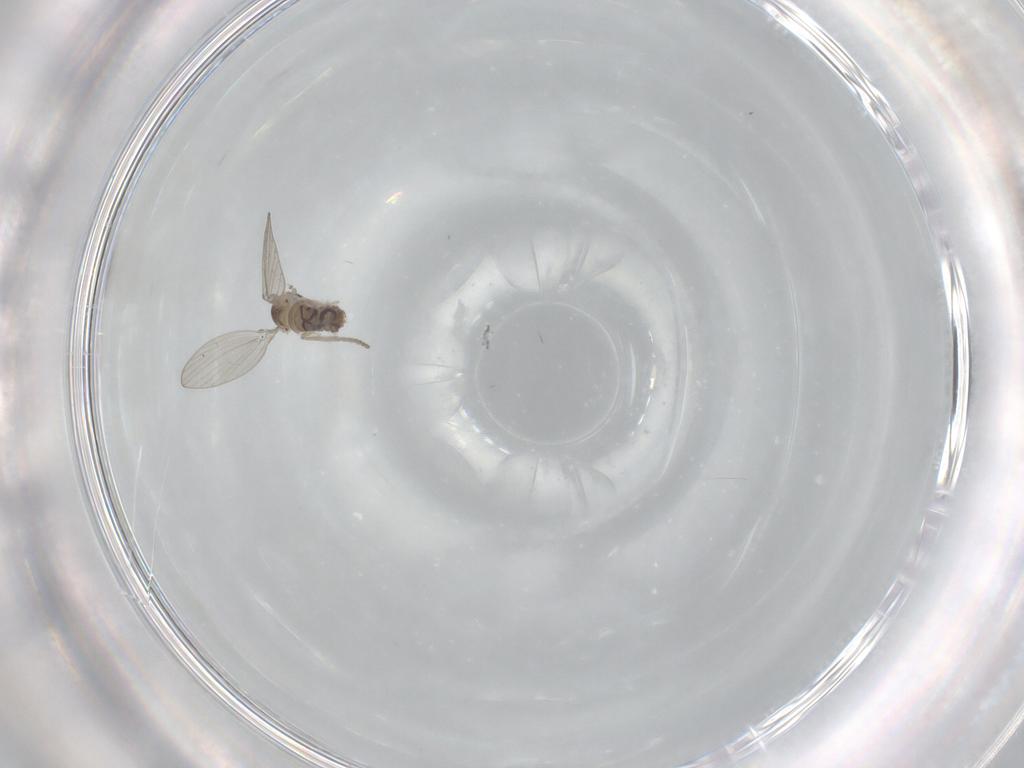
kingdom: Animalia
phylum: Arthropoda
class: Insecta
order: Diptera
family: Psychodidae
